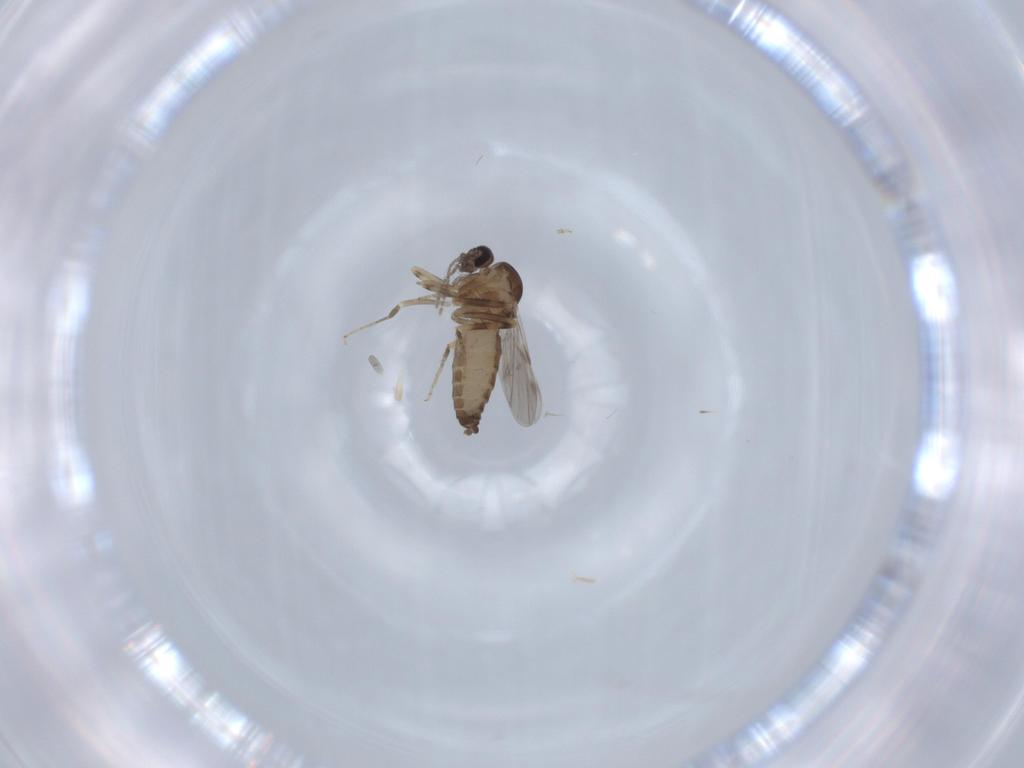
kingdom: Animalia
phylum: Arthropoda
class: Insecta
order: Diptera
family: Ceratopogonidae
